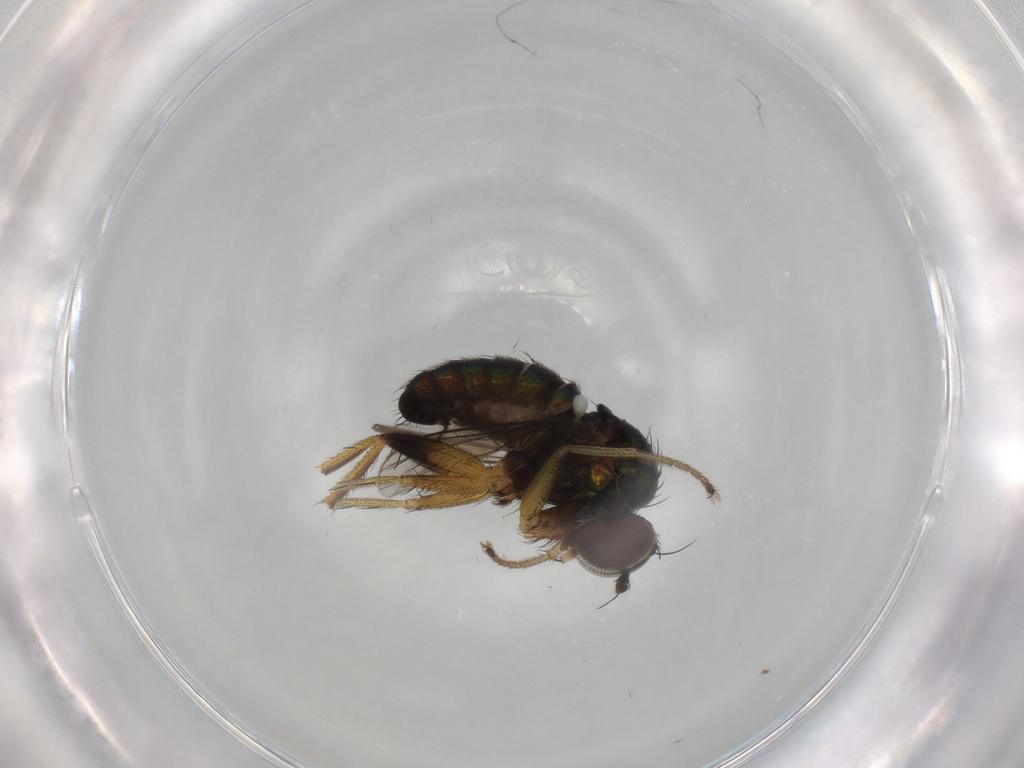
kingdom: Animalia
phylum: Arthropoda
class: Insecta
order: Diptera
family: Dolichopodidae
